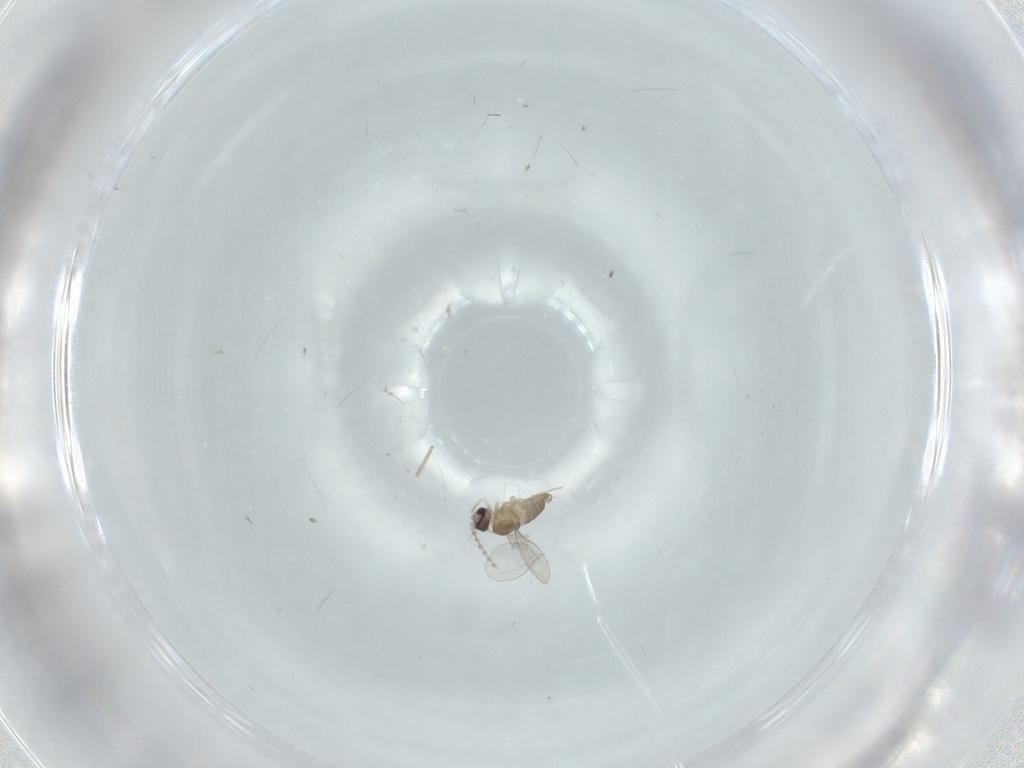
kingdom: Animalia
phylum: Arthropoda
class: Insecta
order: Diptera
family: Cecidomyiidae
